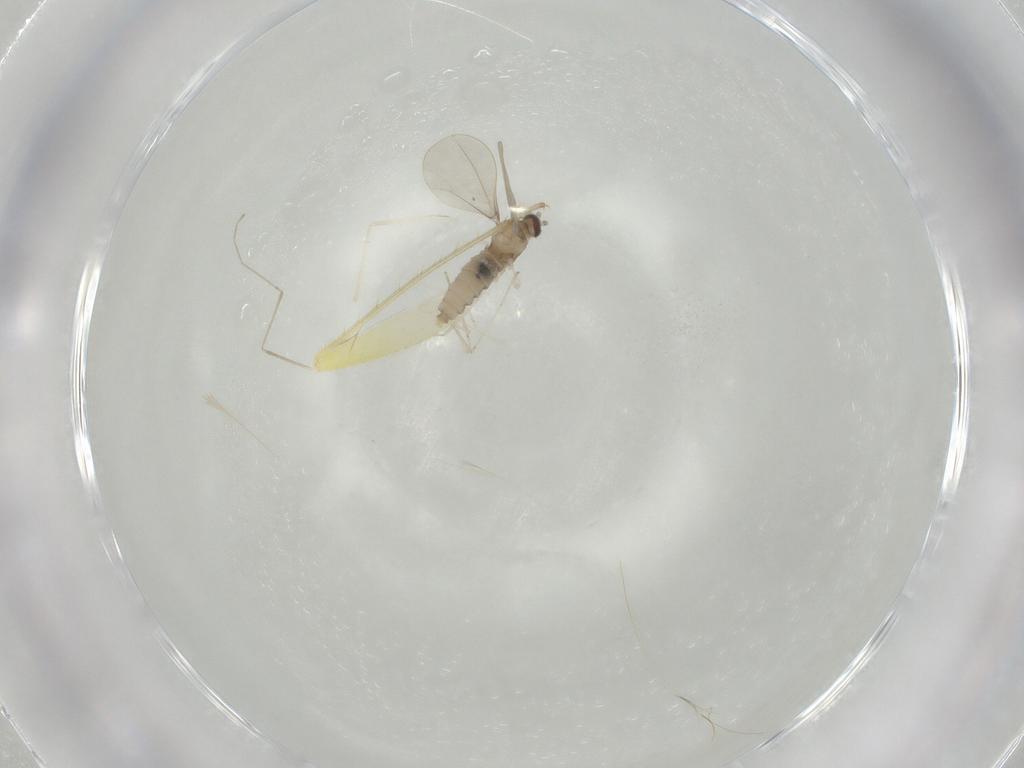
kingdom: Animalia
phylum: Arthropoda
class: Insecta
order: Diptera
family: Cecidomyiidae
